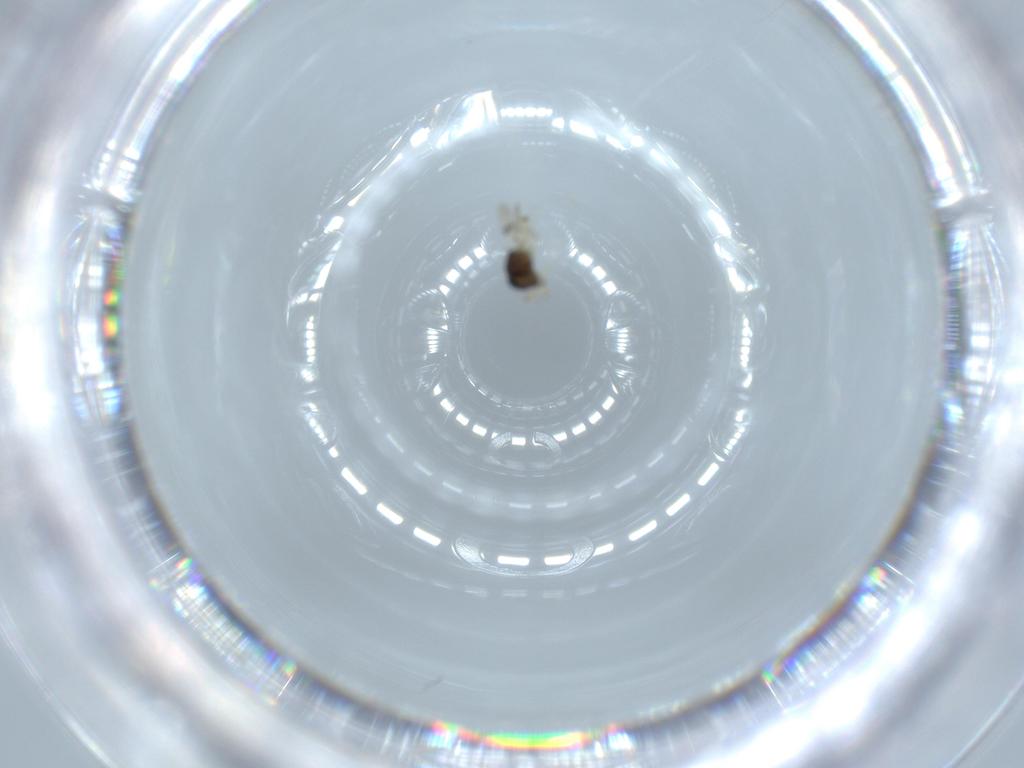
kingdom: Animalia
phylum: Arthropoda
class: Insecta
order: Hymenoptera
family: Scelionidae
